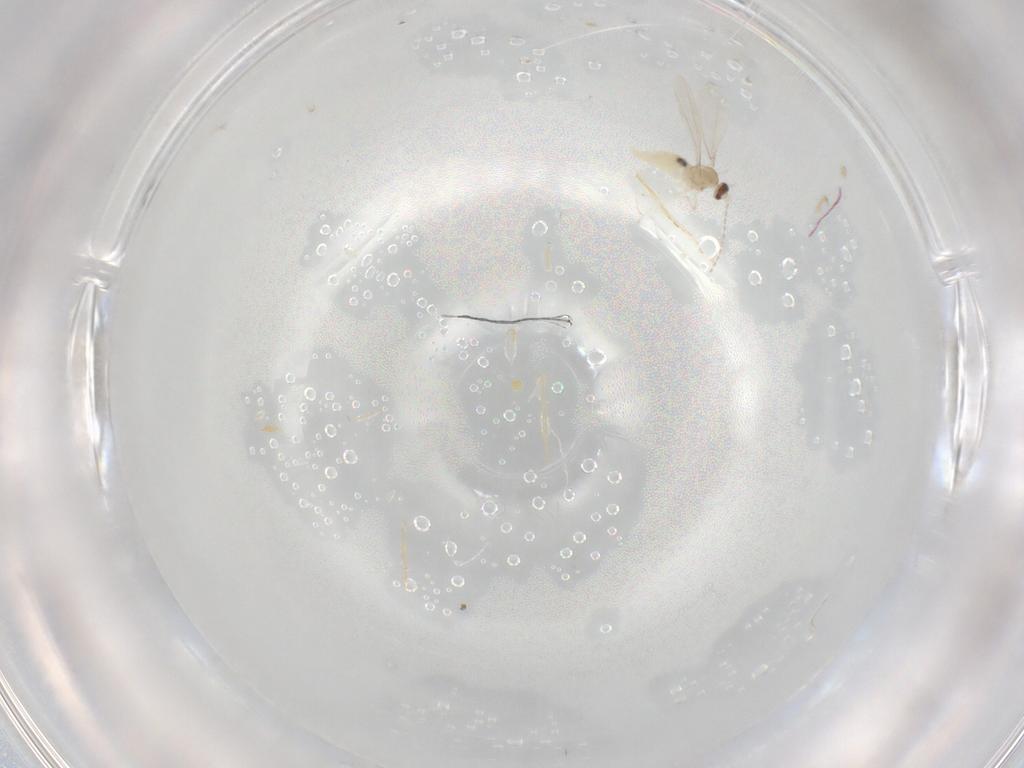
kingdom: Animalia
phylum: Arthropoda
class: Insecta
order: Diptera
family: Cecidomyiidae
